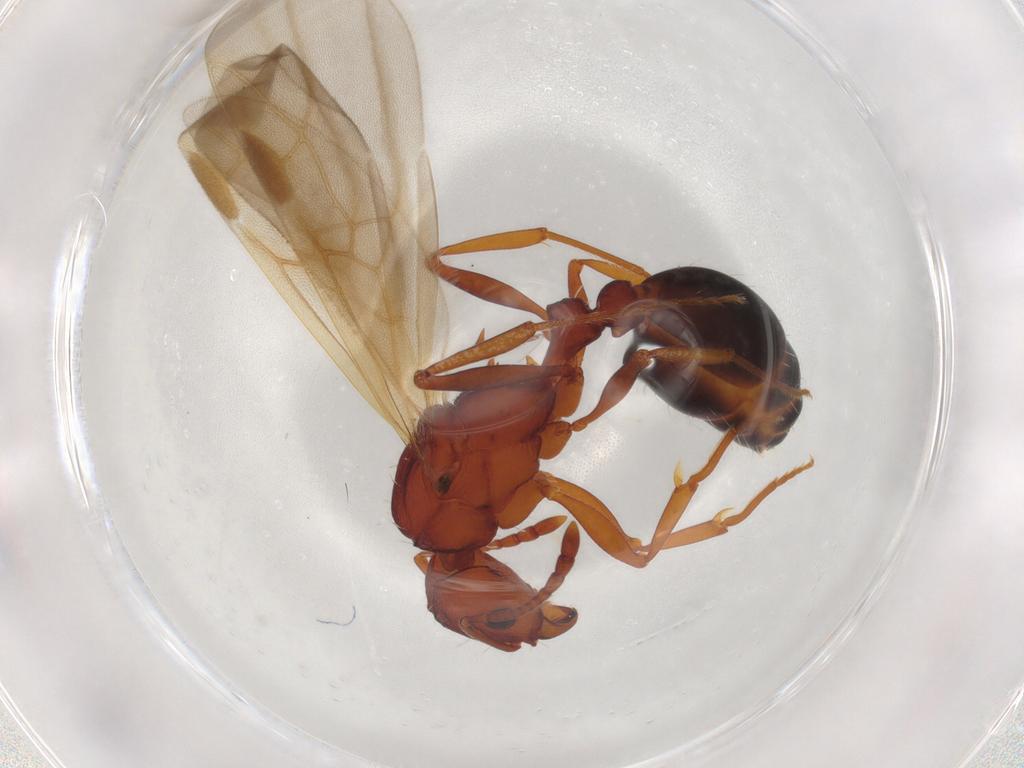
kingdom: Animalia
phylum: Arthropoda
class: Insecta
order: Hymenoptera
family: Formicidae
